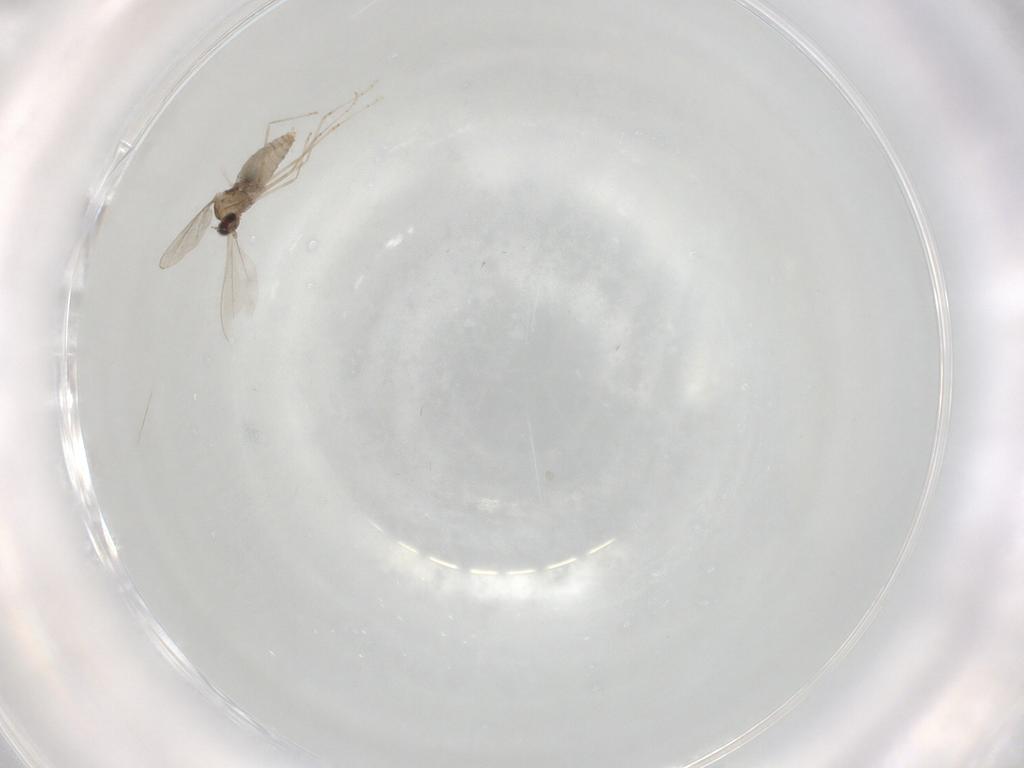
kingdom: Animalia
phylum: Arthropoda
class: Insecta
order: Diptera
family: Cecidomyiidae
